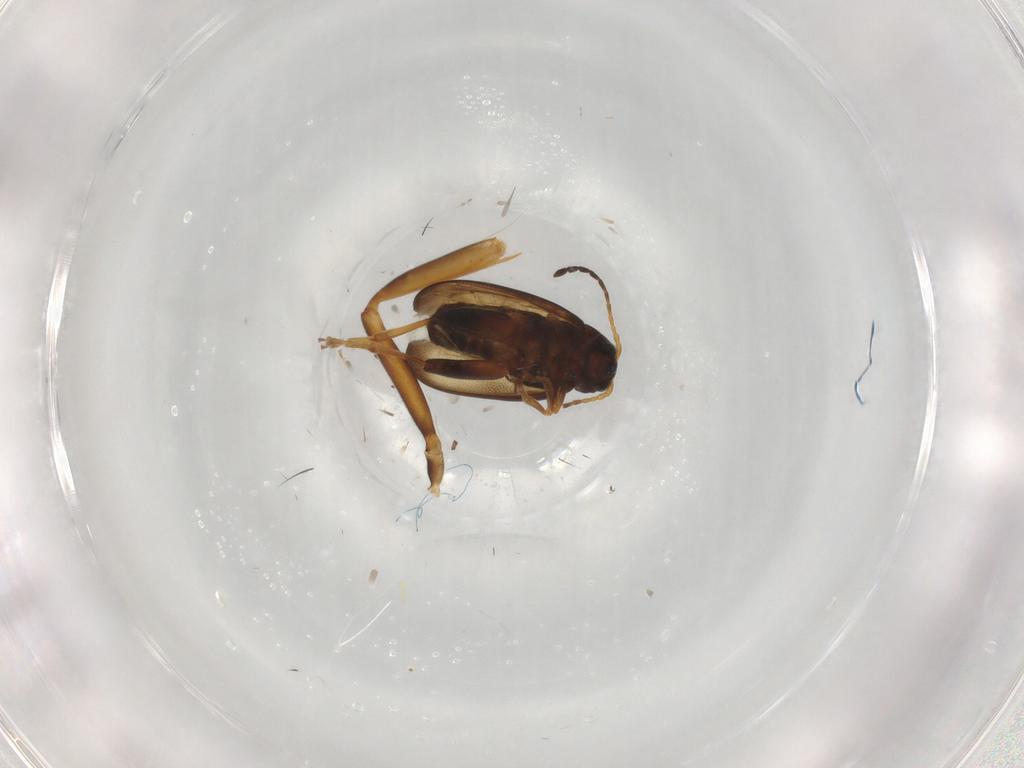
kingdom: Animalia
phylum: Arthropoda
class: Insecta
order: Coleoptera
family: Chrysomelidae
